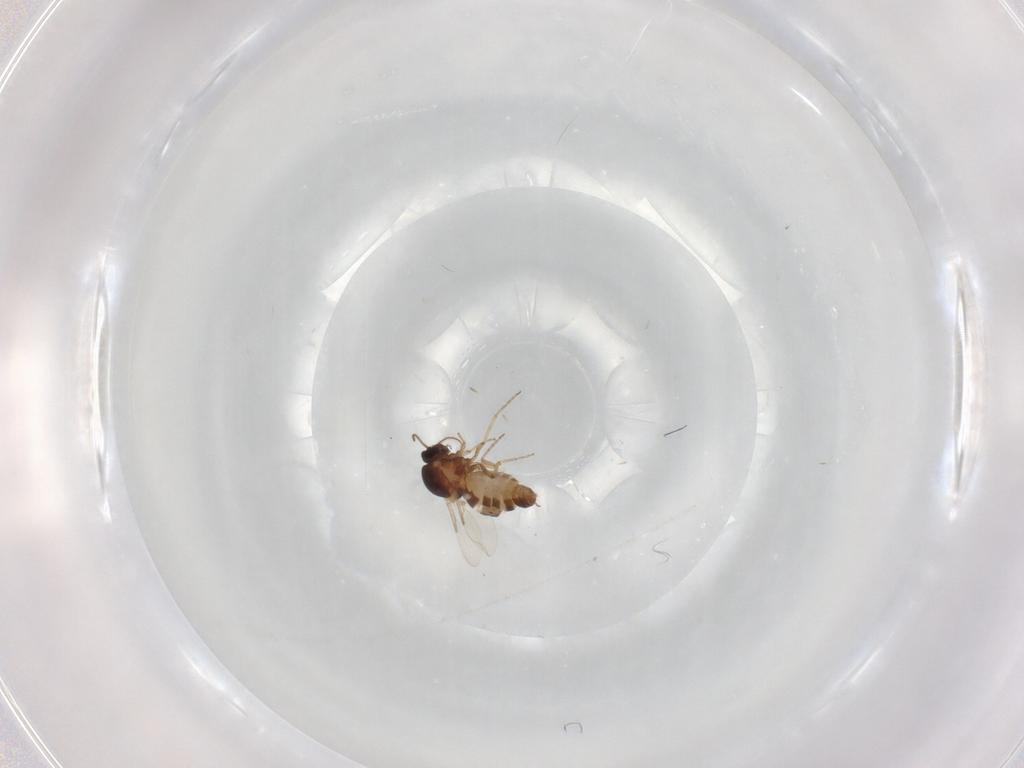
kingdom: Animalia
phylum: Arthropoda
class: Insecta
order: Diptera
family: Ceratopogonidae
